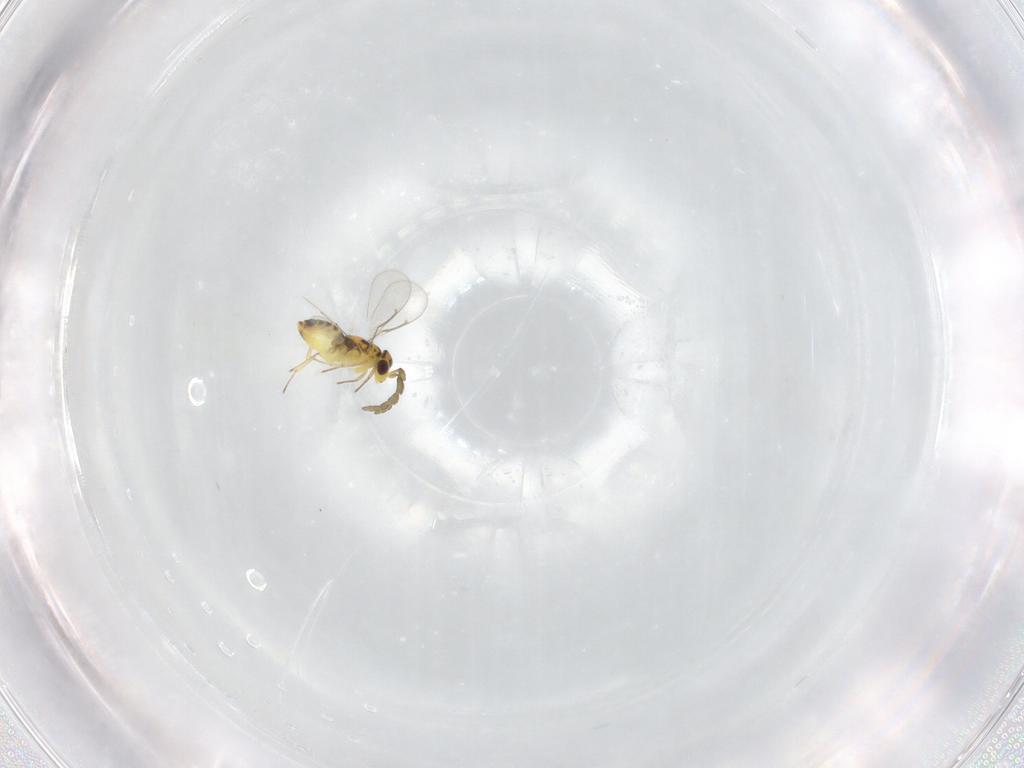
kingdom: Animalia
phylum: Arthropoda
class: Insecta
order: Hymenoptera
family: Aphelinidae
